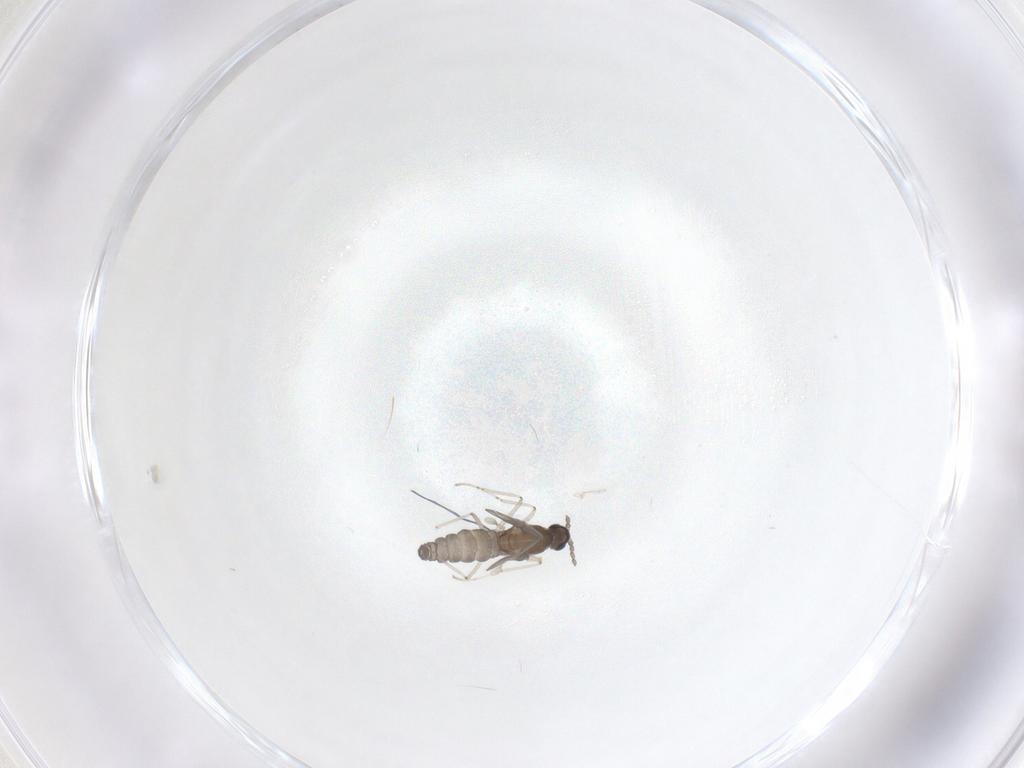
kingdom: Animalia
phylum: Arthropoda
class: Insecta
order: Diptera
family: Cecidomyiidae
